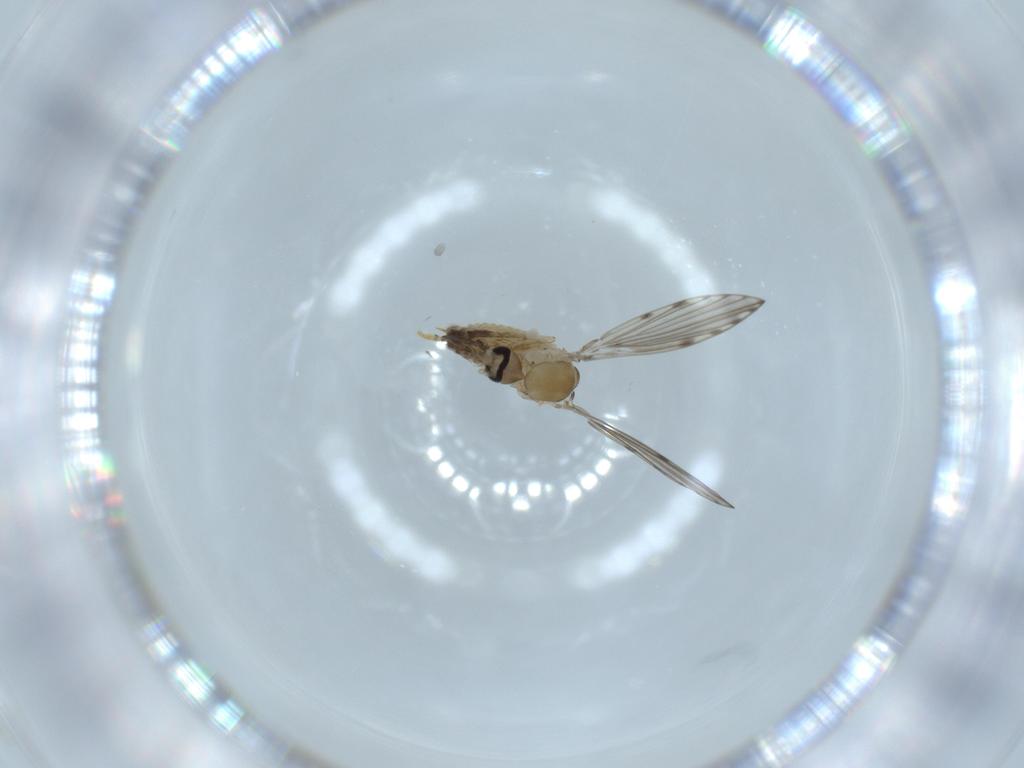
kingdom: Animalia
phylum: Arthropoda
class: Insecta
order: Diptera
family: Psychodidae
